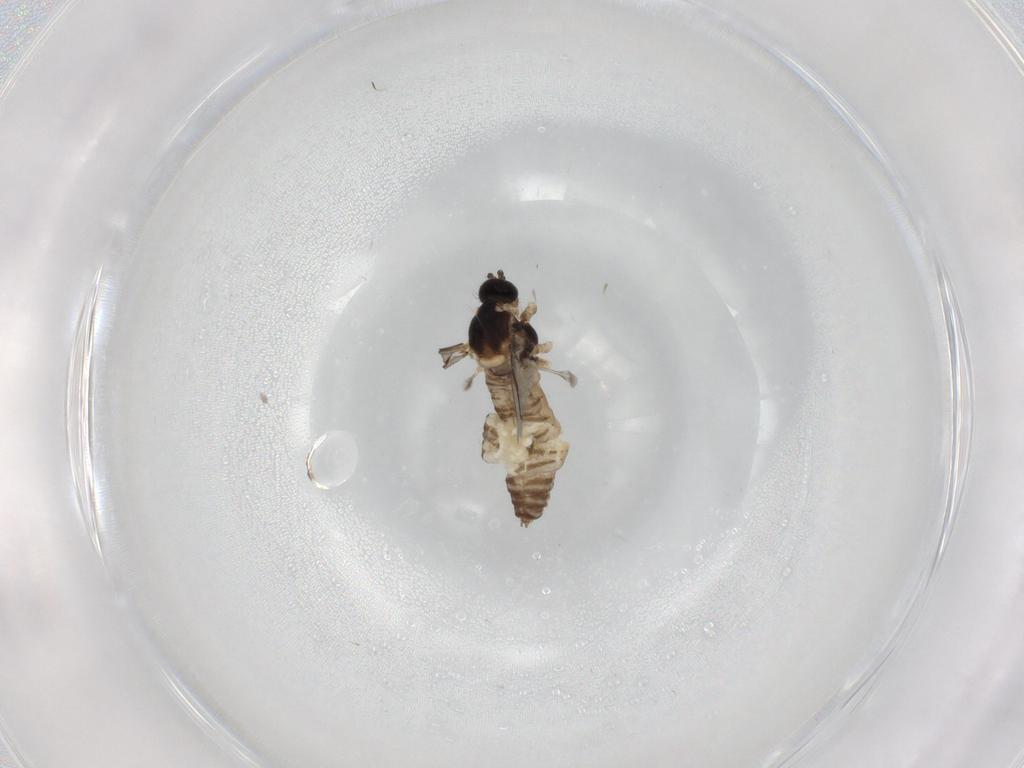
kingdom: Animalia
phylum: Arthropoda
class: Insecta
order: Diptera
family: Cecidomyiidae
